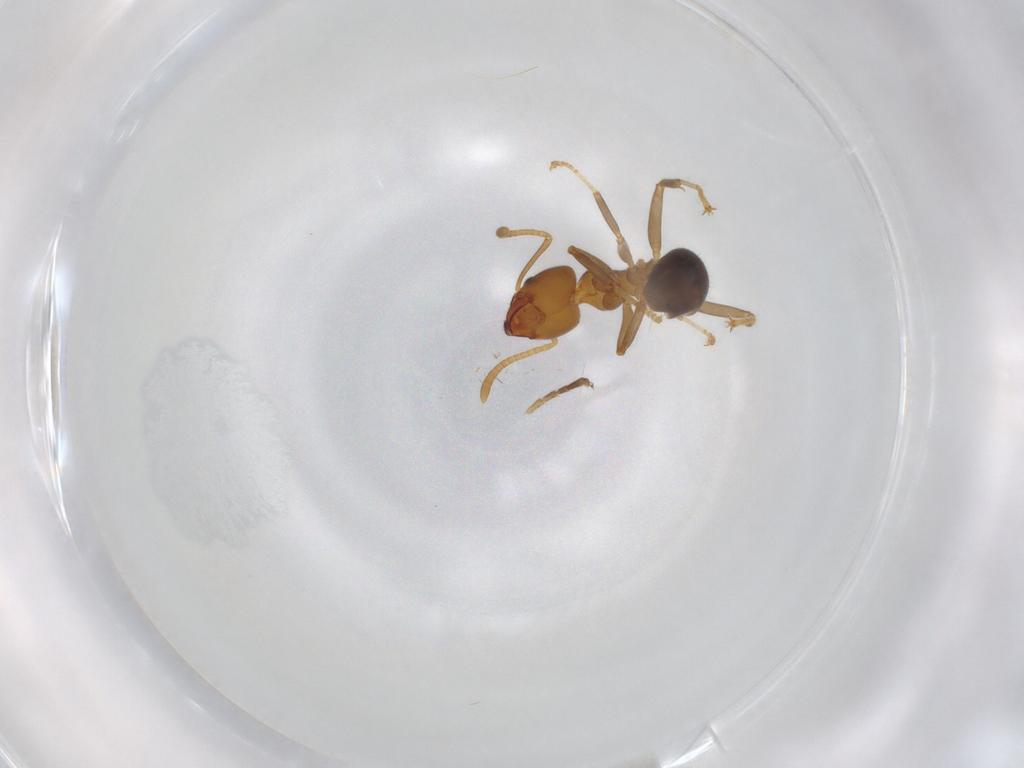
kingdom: Animalia
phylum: Arthropoda
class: Insecta
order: Hymenoptera
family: Formicidae
